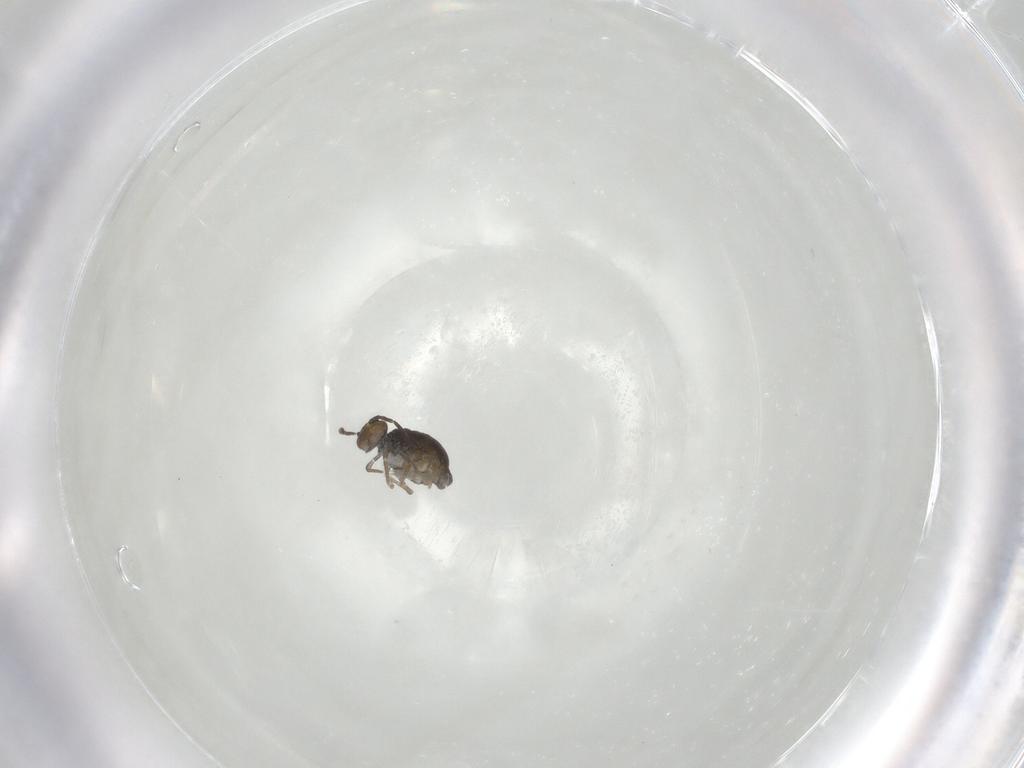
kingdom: Animalia
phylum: Arthropoda
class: Collembola
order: Symphypleona
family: Katiannidae
